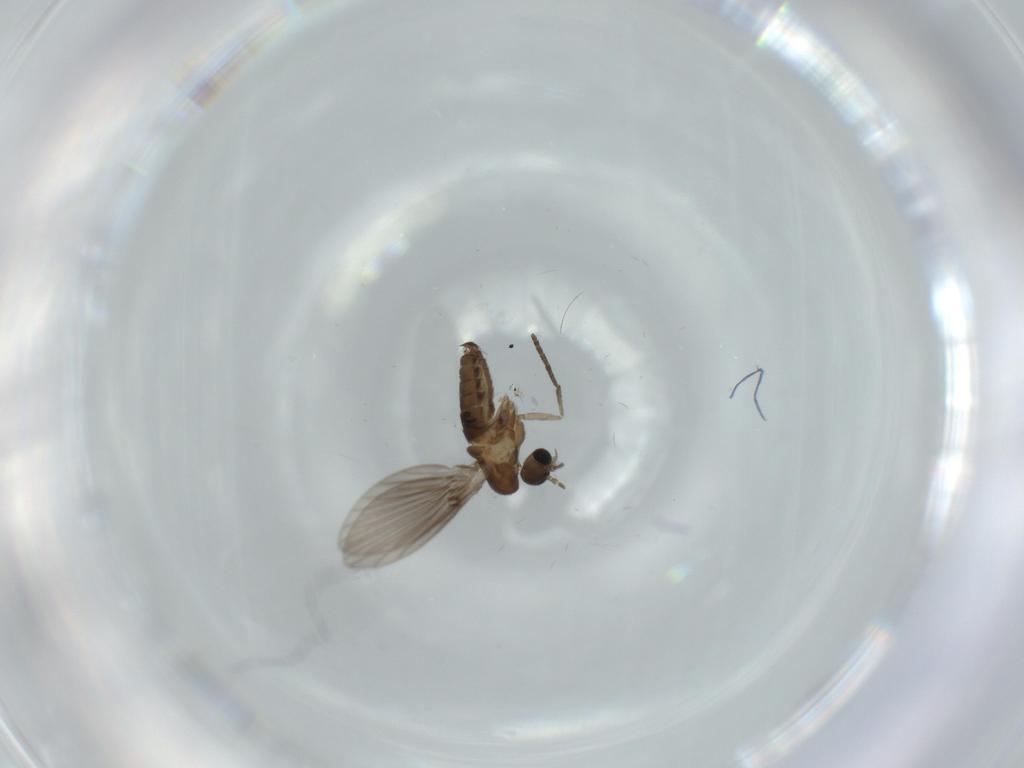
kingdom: Animalia
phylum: Arthropoda
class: Insecta
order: Diptera
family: Psychodidae
